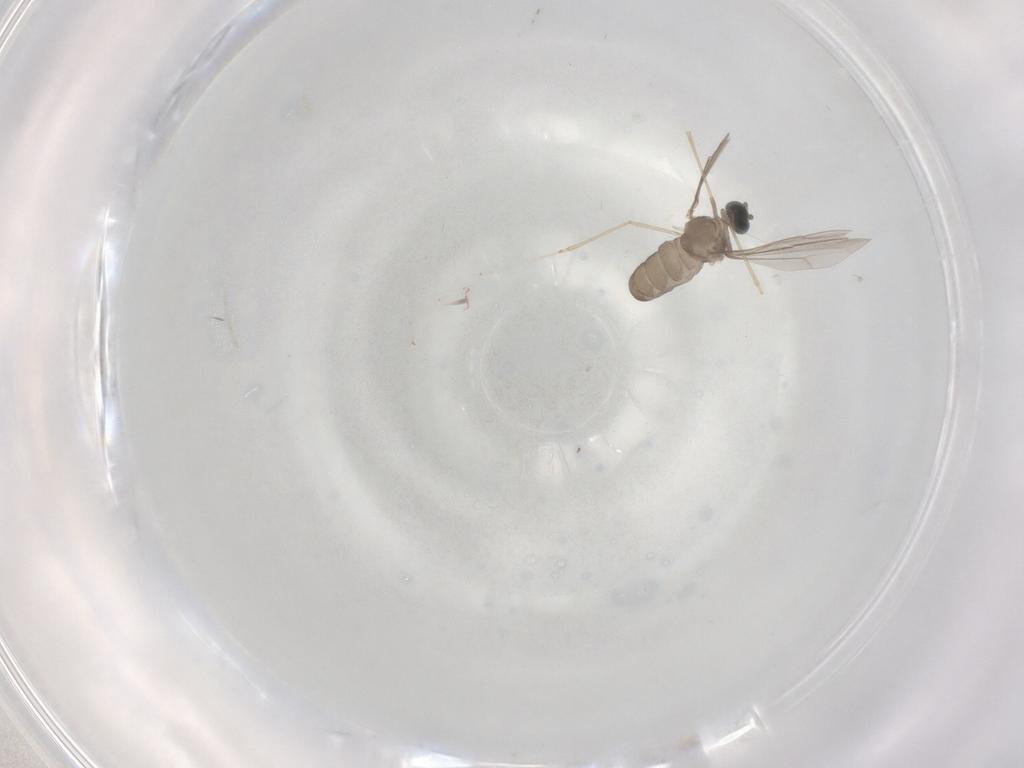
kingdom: Animalia
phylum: Arthropoda
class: Insecta
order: Diptera
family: Cecidomyiidae
